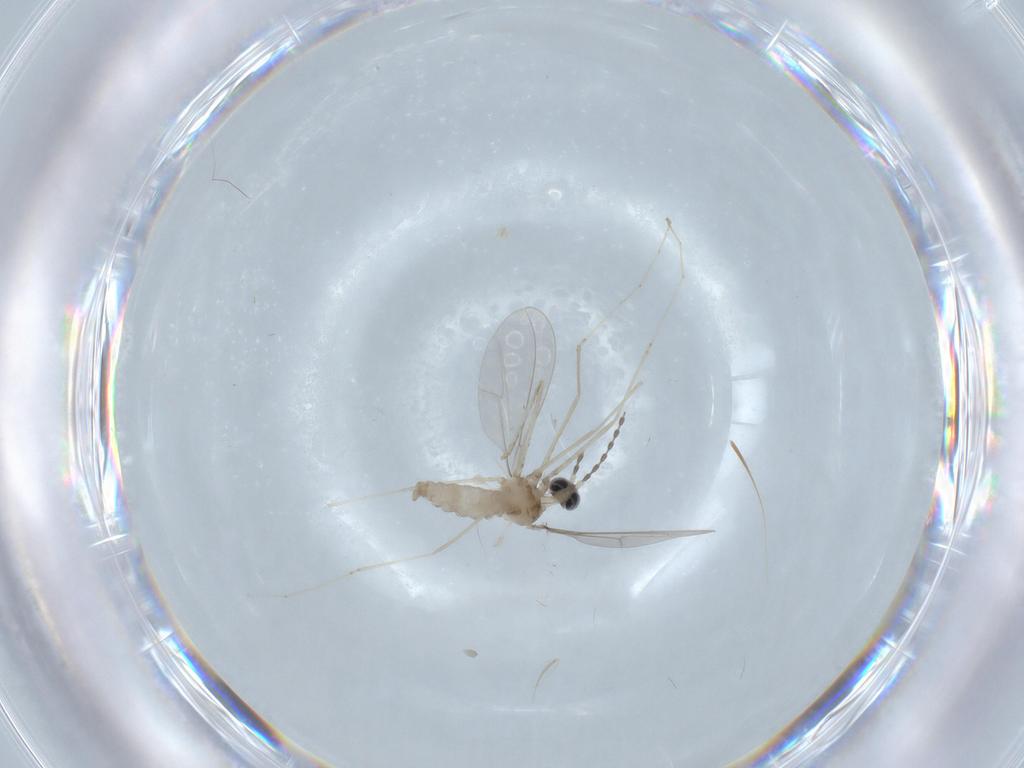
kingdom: Animalia
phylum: Arthropoda
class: Insecta
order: Diptera
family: Cecidomyiidae
